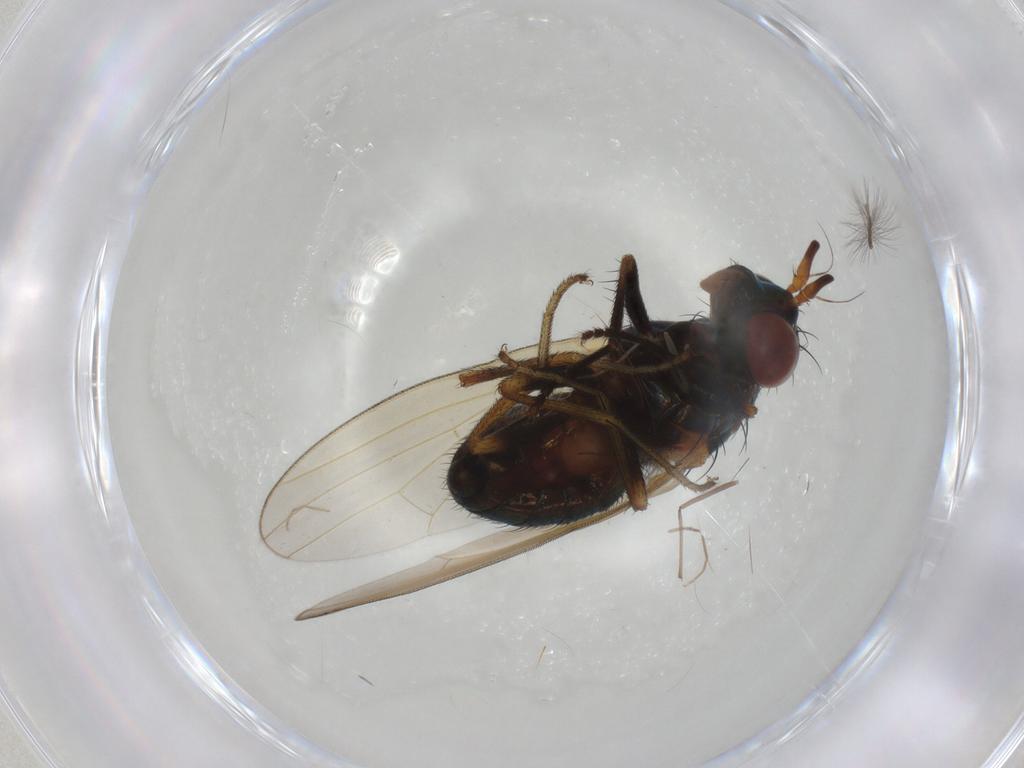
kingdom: Animalia
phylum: Arthropoda
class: Insecta
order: Diptera
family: Lauxaniidae
